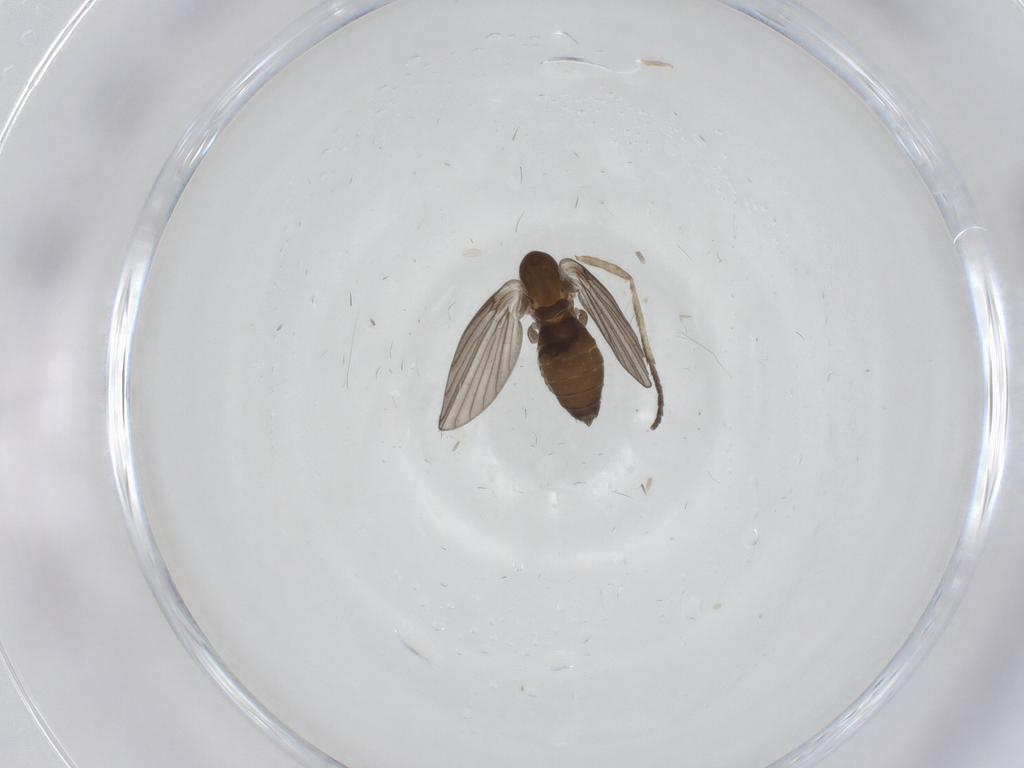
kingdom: Animalia
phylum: Arthropoda
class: Insecta
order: Diptera
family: Psychodidae
